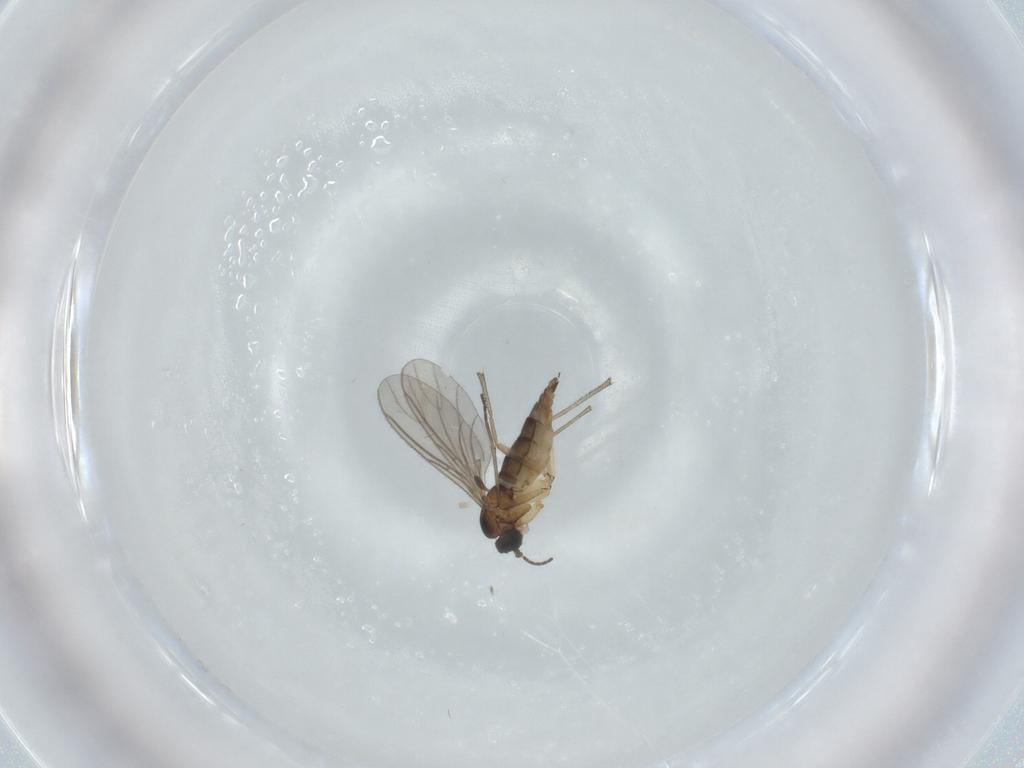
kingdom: Animalia
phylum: Arthropoda
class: Insecta
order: Diptera
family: Sciaridae
